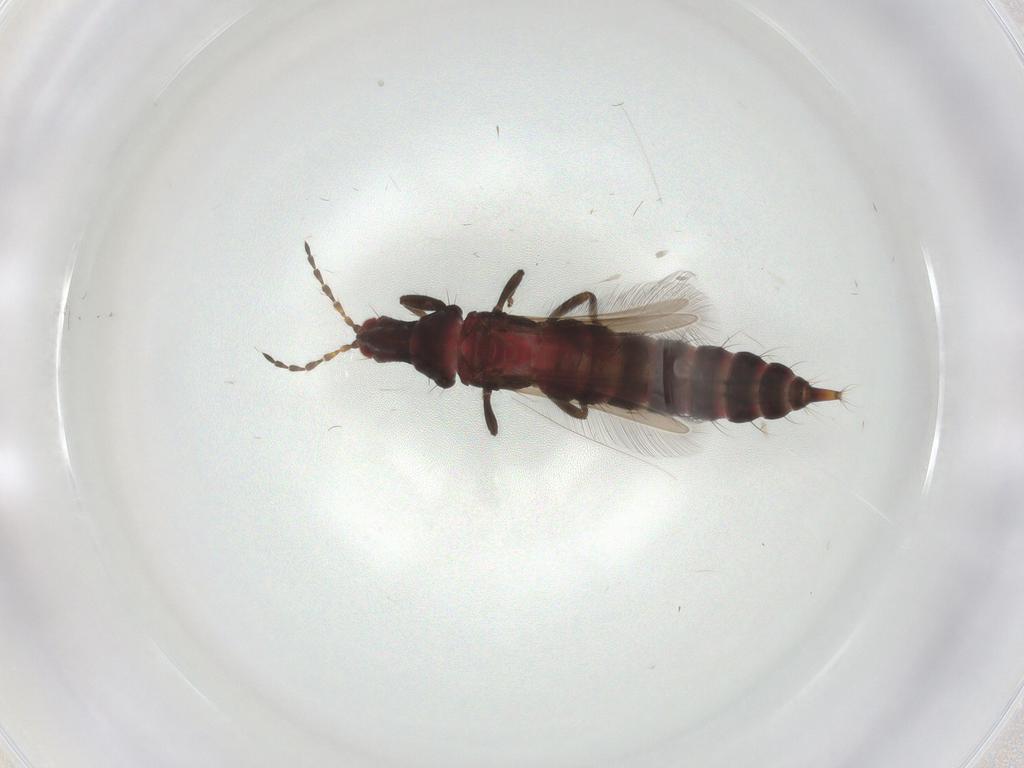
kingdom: Animalia
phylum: Arthropoda
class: Insecta
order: Thysanoptera
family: Phlaeothripidae
